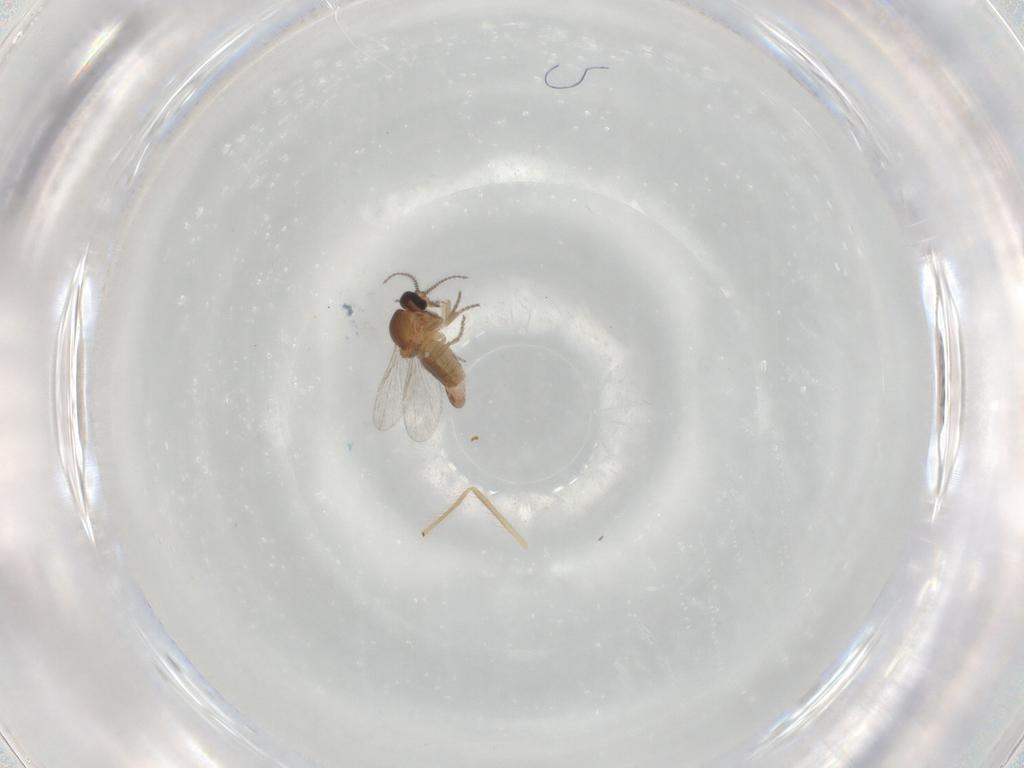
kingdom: Animalia
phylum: Arthropoda
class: Insecta
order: Diptera
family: Ceratopogonidae
